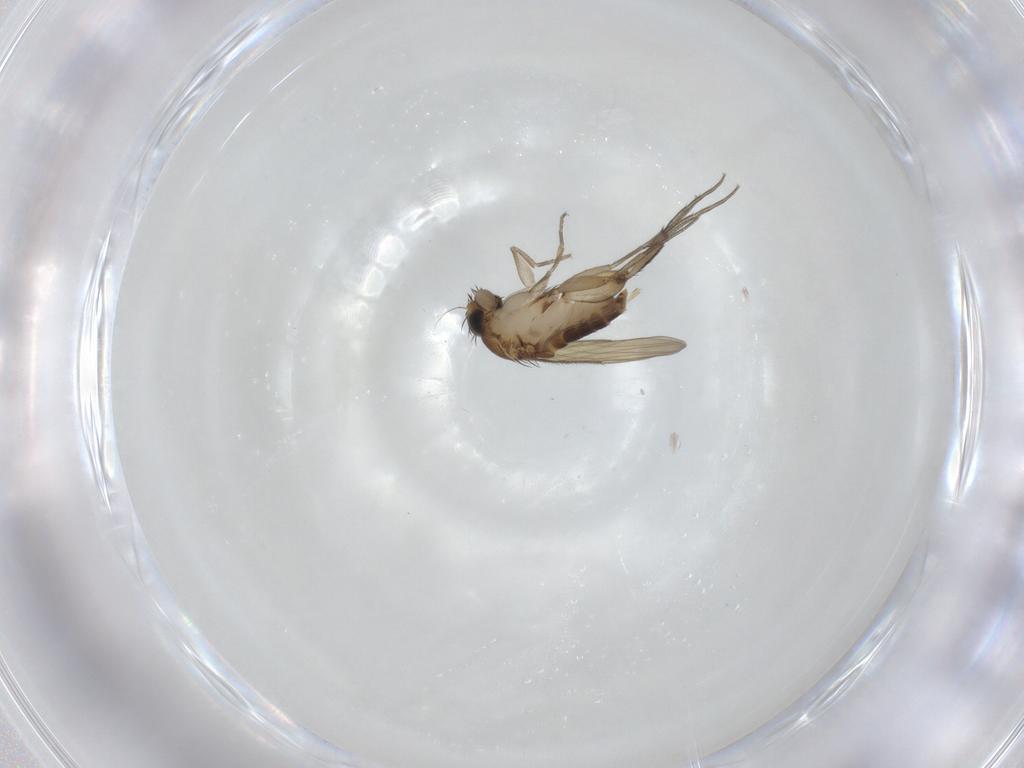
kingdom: Animalia
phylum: Arthropoda
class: Insecta
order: Diptera
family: Phoridae
